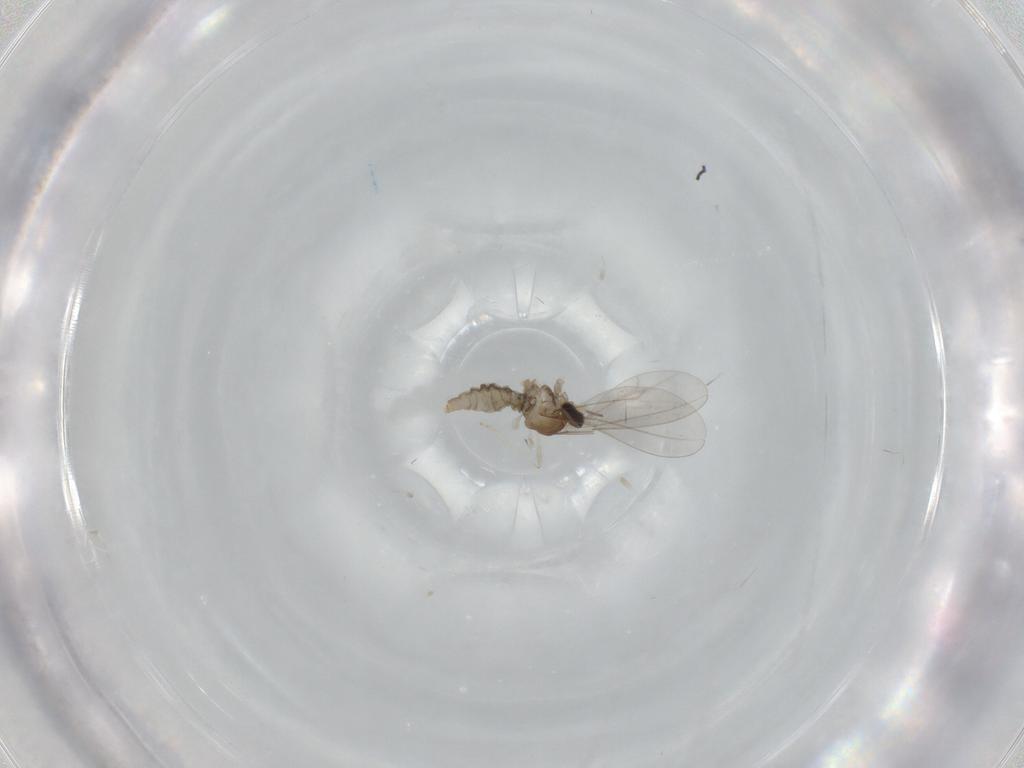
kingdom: Animalia
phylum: Arthropoda
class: Insecta
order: Diptera
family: Cecidomyiidae
